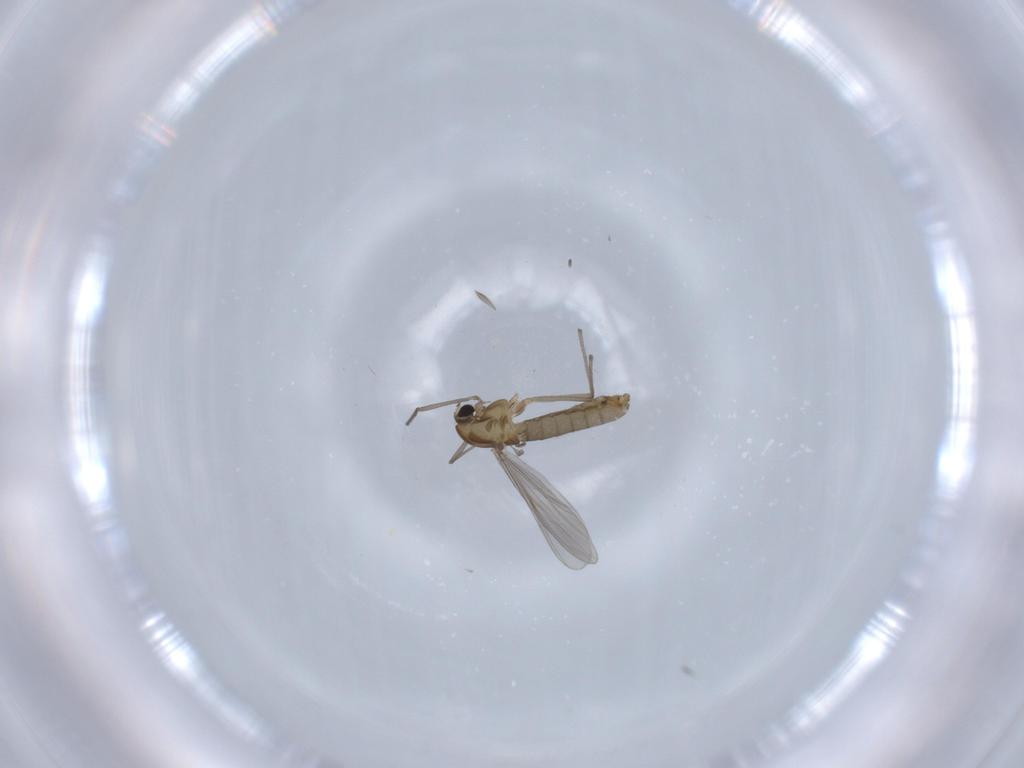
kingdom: Animalia
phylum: Arthropoda
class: Insecta
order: Diptera
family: Chironomidae
